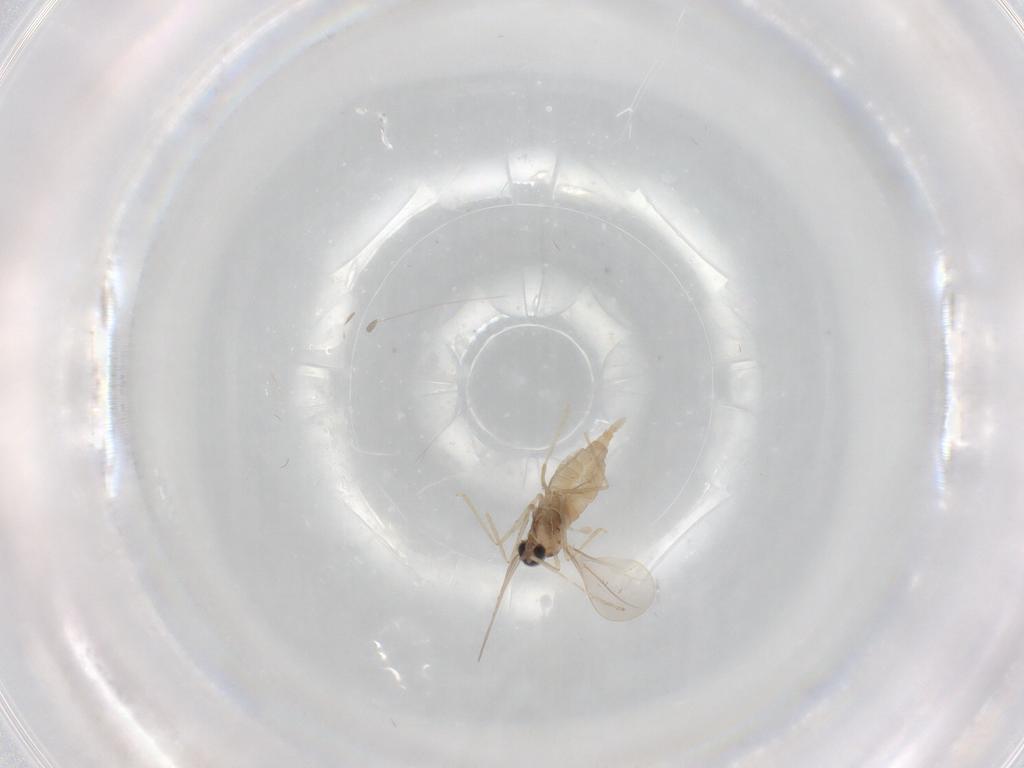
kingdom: Animalia
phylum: Arthropoda
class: Insecta
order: Diptera
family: Cecidomyiidae
